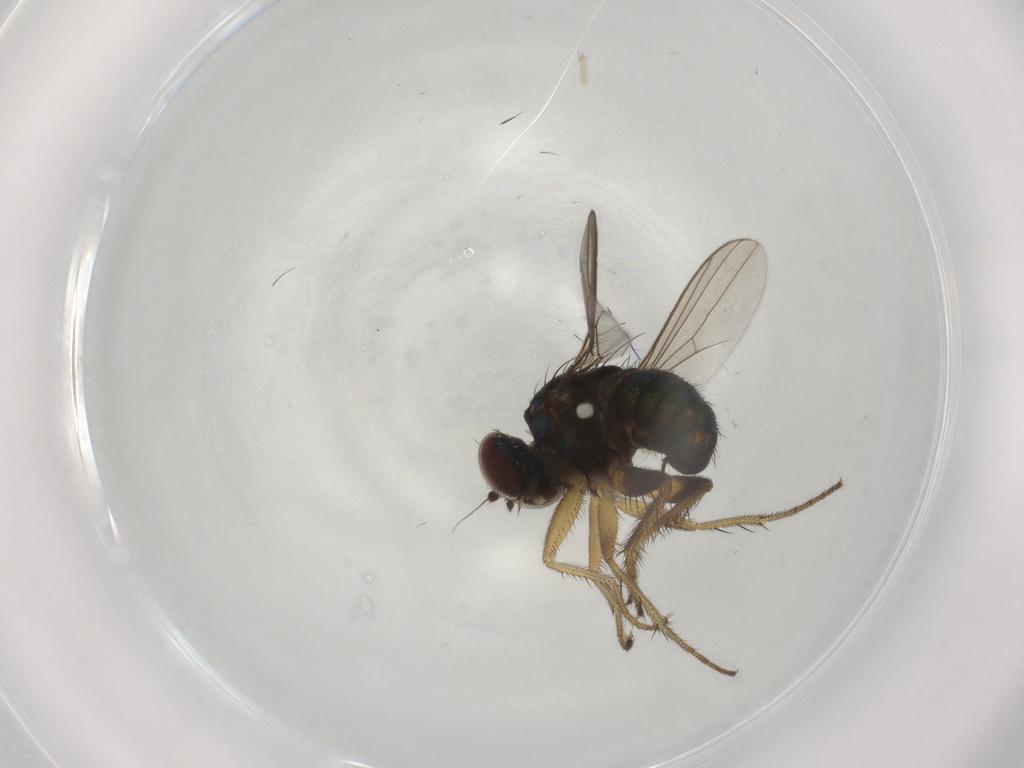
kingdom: Animalia
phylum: Arthropoda
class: Insecta
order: Diptera
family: Dolichopodidae
